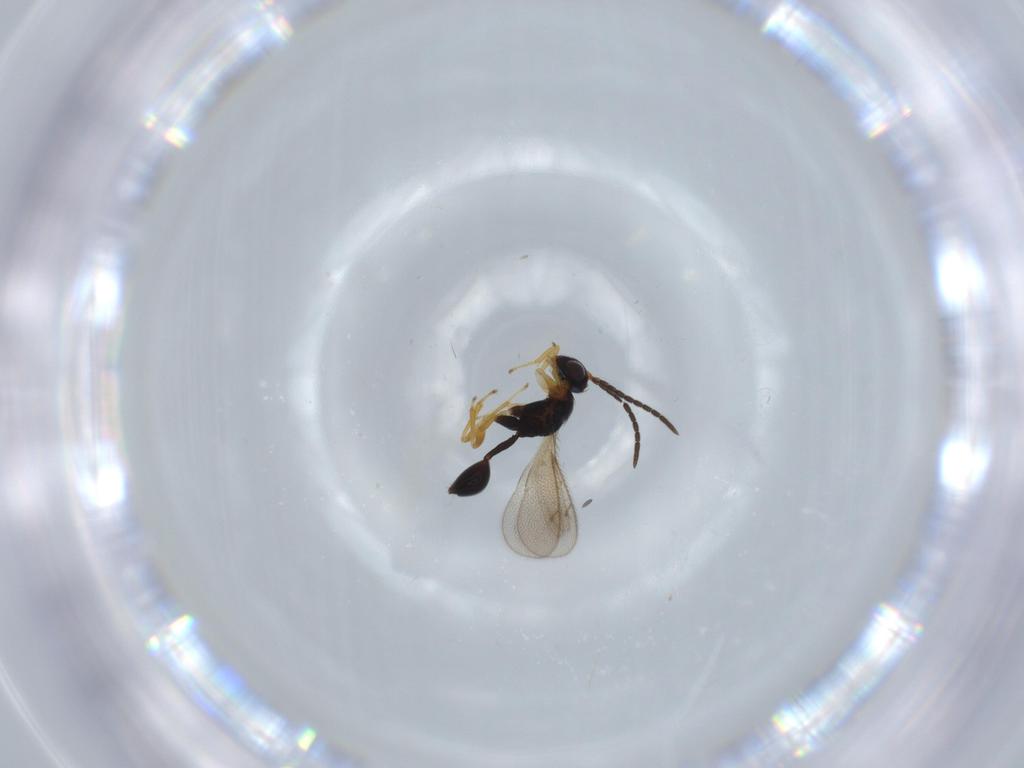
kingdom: Animalia
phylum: Arthropoda
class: Insecta
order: Hymenoptera
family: Diparidae
